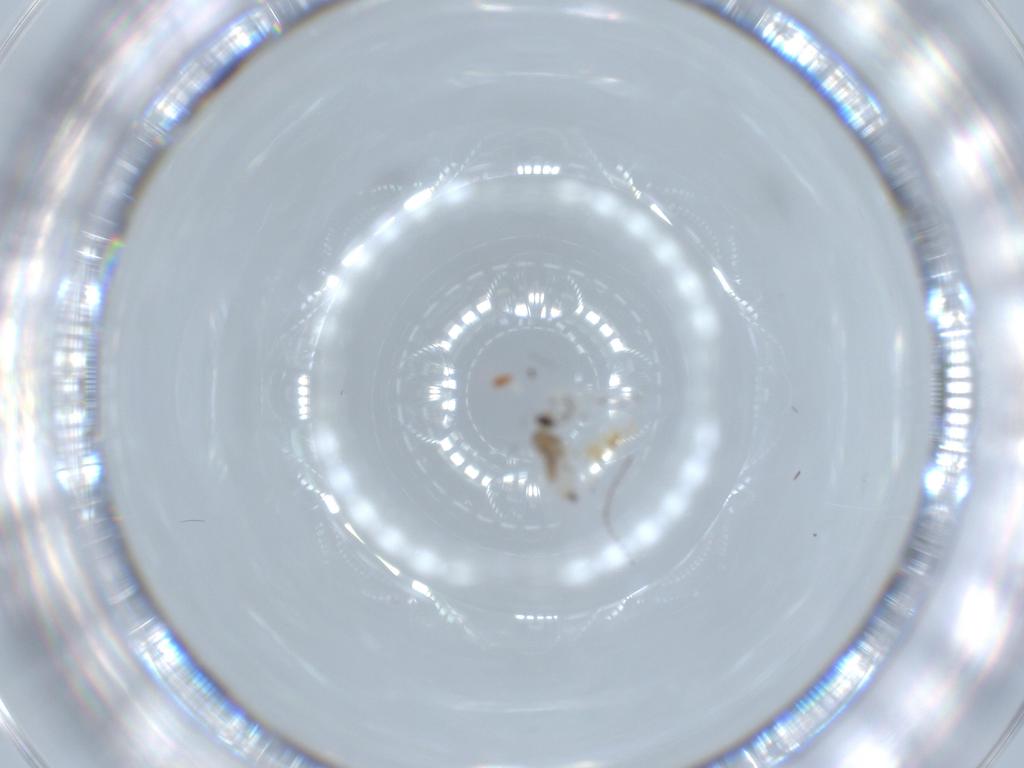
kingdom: Animalia
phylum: Arthropoda
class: Insecta
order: Diptera
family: Cecidomyiidae
